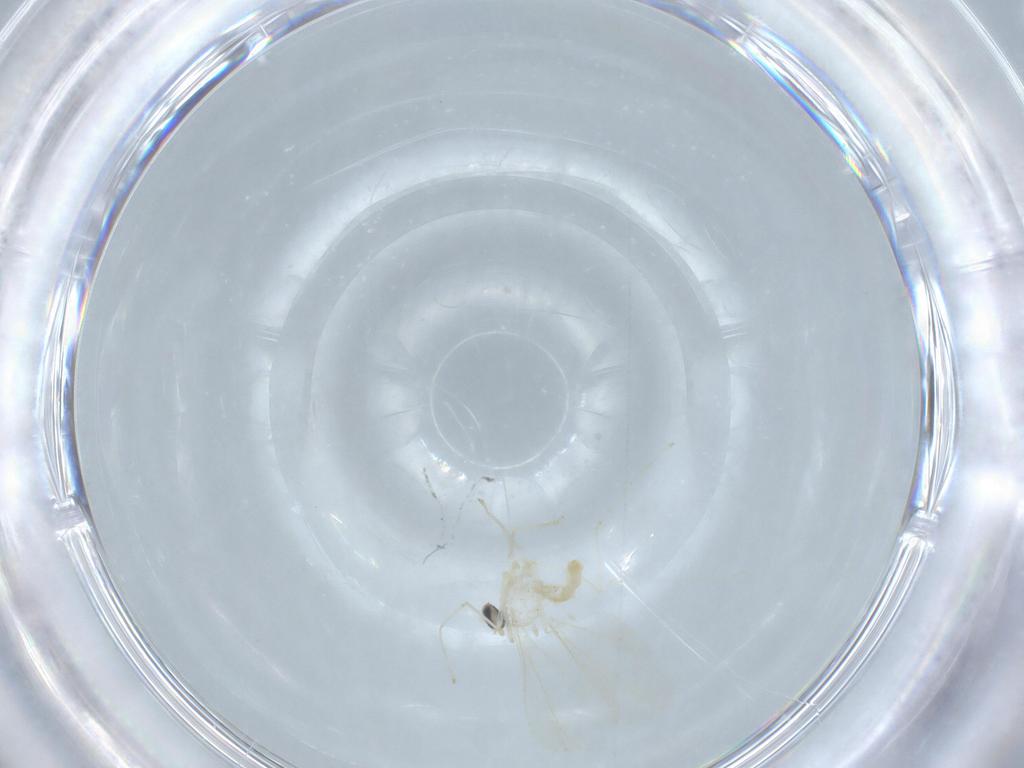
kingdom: Animalia
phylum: Arthropoda
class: Insecta
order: Diptera
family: Cecidomyiidae
